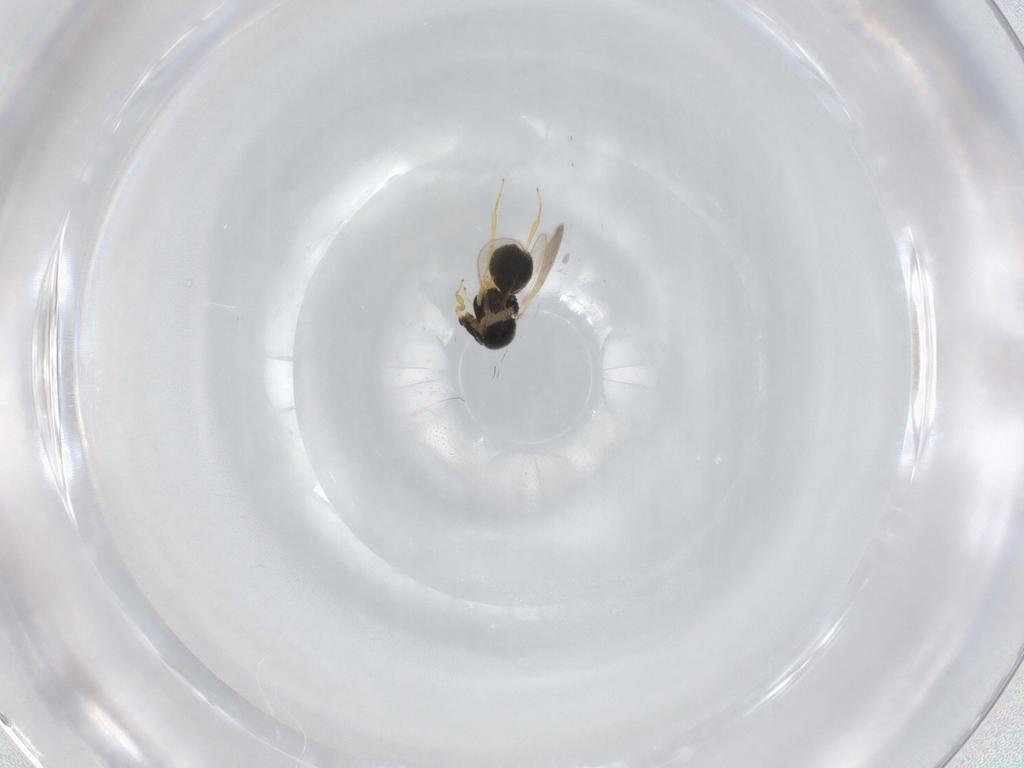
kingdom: Animalia
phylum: Arthropoda
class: Insecta
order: Hymenoptera
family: Scelionidae
